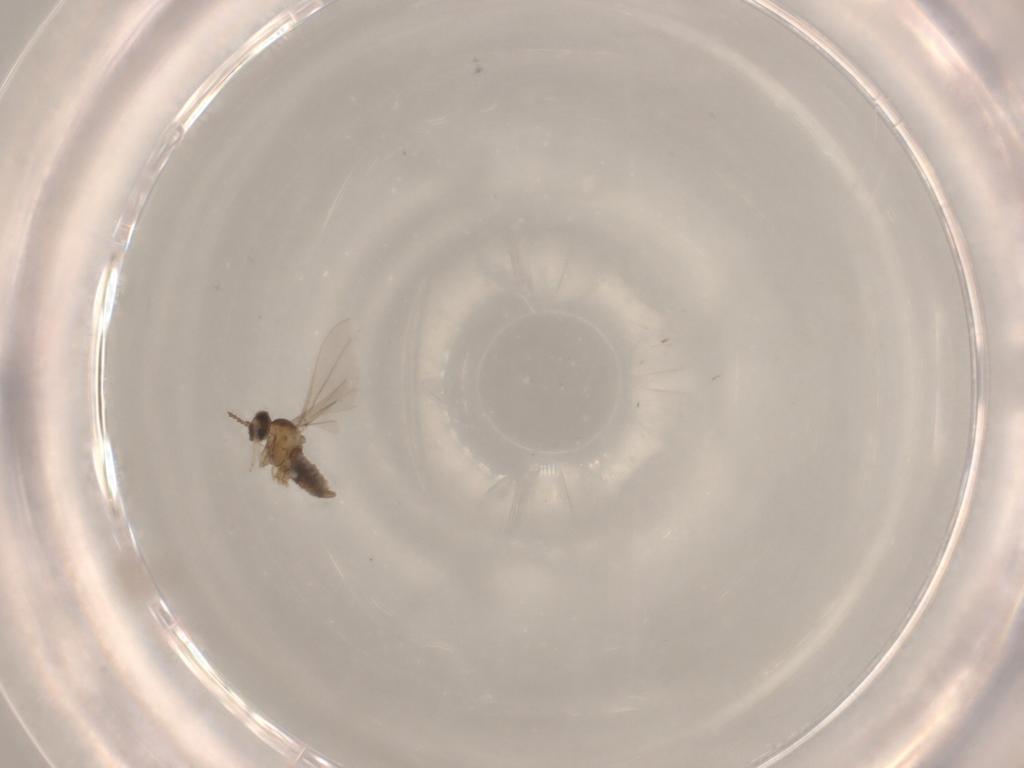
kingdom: Animalia
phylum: Arthropoda
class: Insecta
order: Diptera
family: Cecidomyiidae
